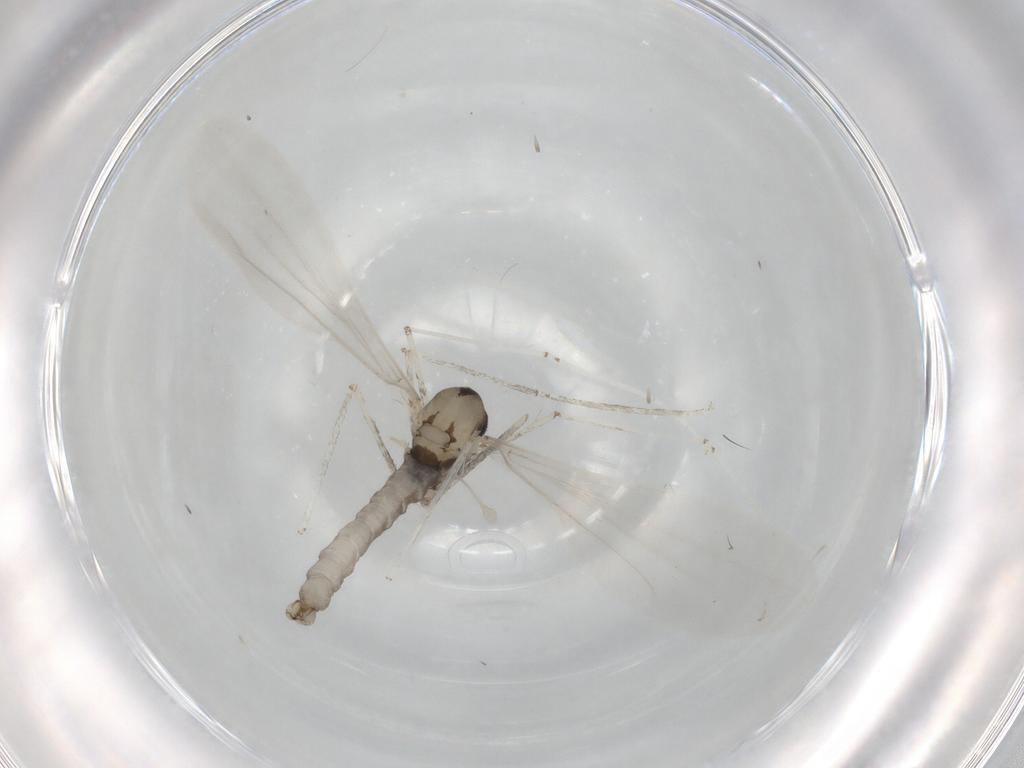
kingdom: Animalia
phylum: Arthropoda
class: Insecta
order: Diptera
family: Cecidomyiidae
